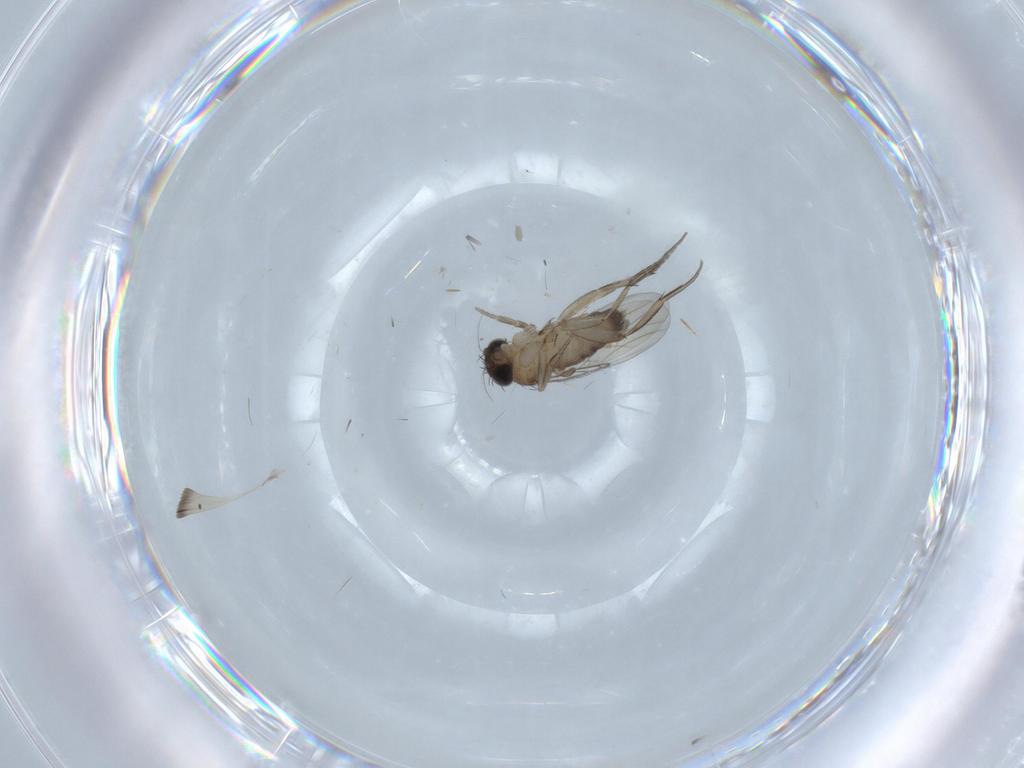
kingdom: Animalia
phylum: Arthropoda
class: Insecta
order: Diptera
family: Phoridae
